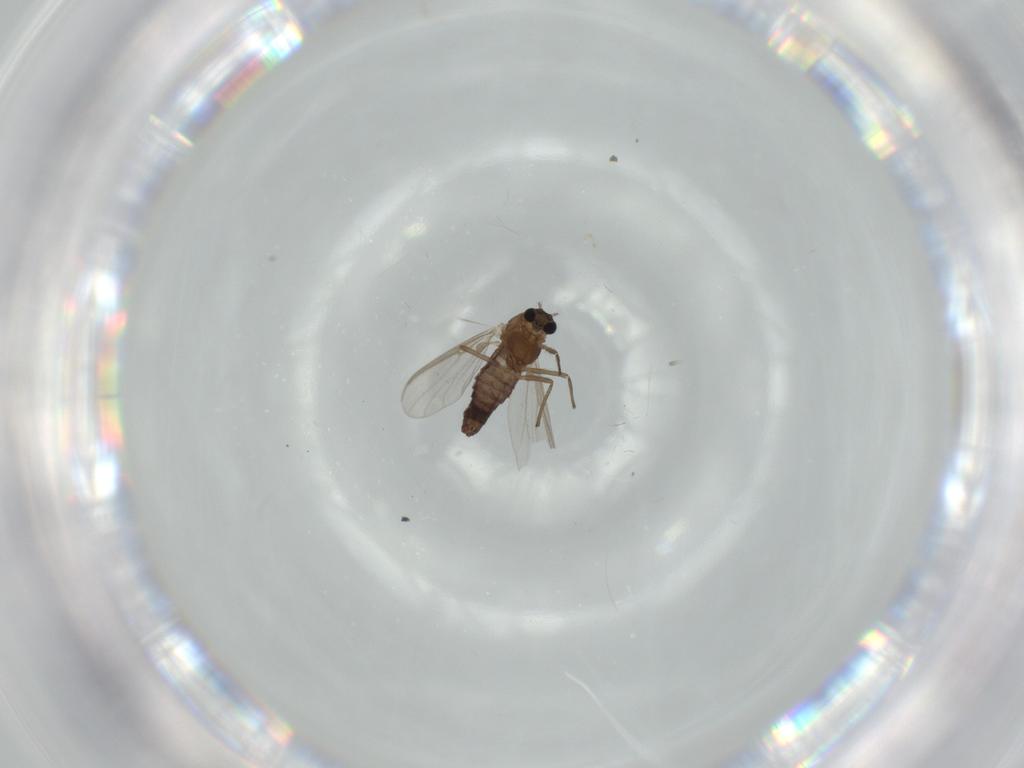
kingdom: Animalia
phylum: Arthropoda
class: Insecta
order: Diptera
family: Chironomidae
